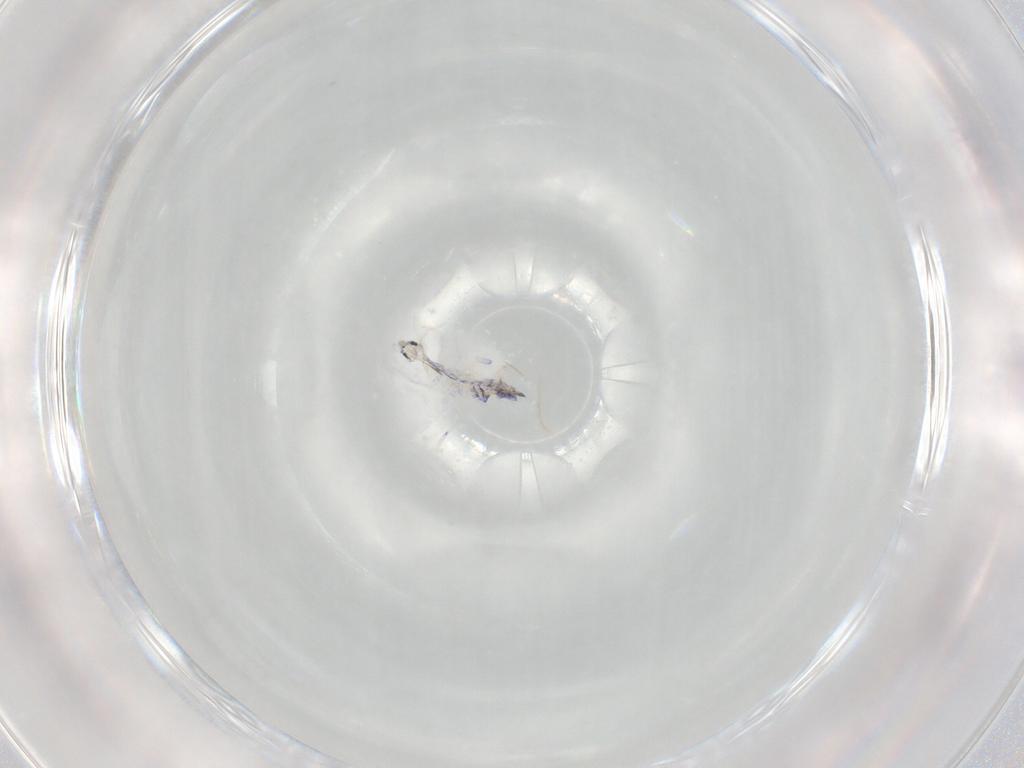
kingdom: Animalia
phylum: Arthropoda
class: Collembola
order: Entomobryomorpha
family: Entomobryidae
